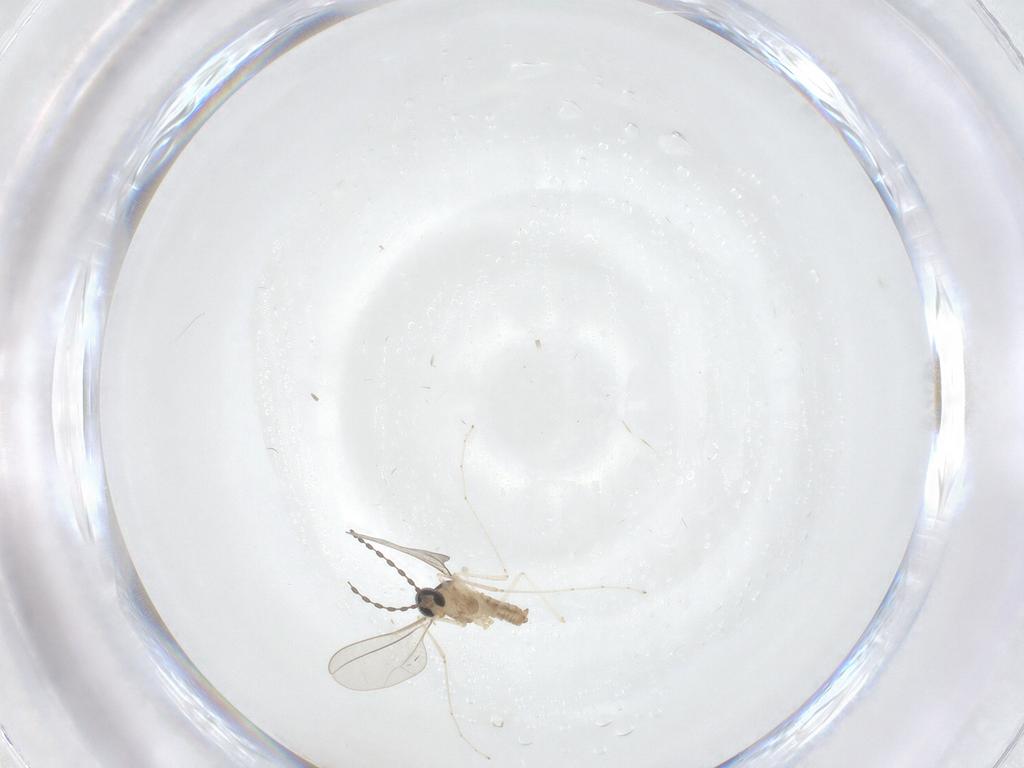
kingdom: Animalia
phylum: Arthropoda
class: Insecta
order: Diptera
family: Cecidomyiidae
